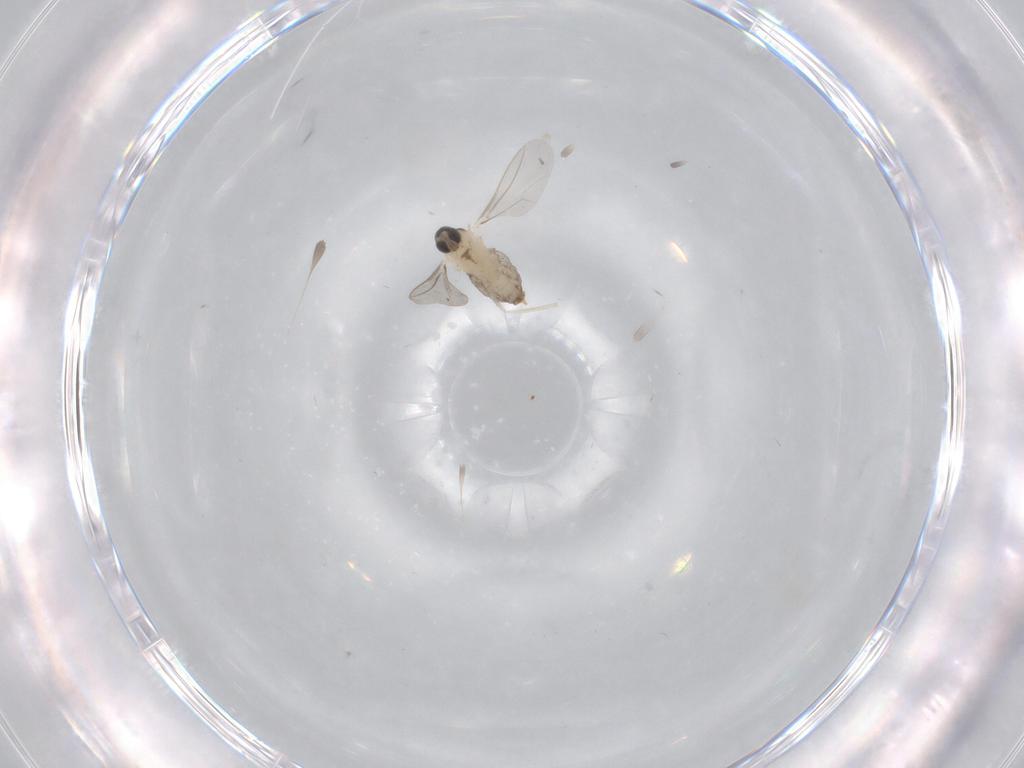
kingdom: Animalia
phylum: Arthropoda
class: Insecta
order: Diptera
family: Cecidomyiidae
